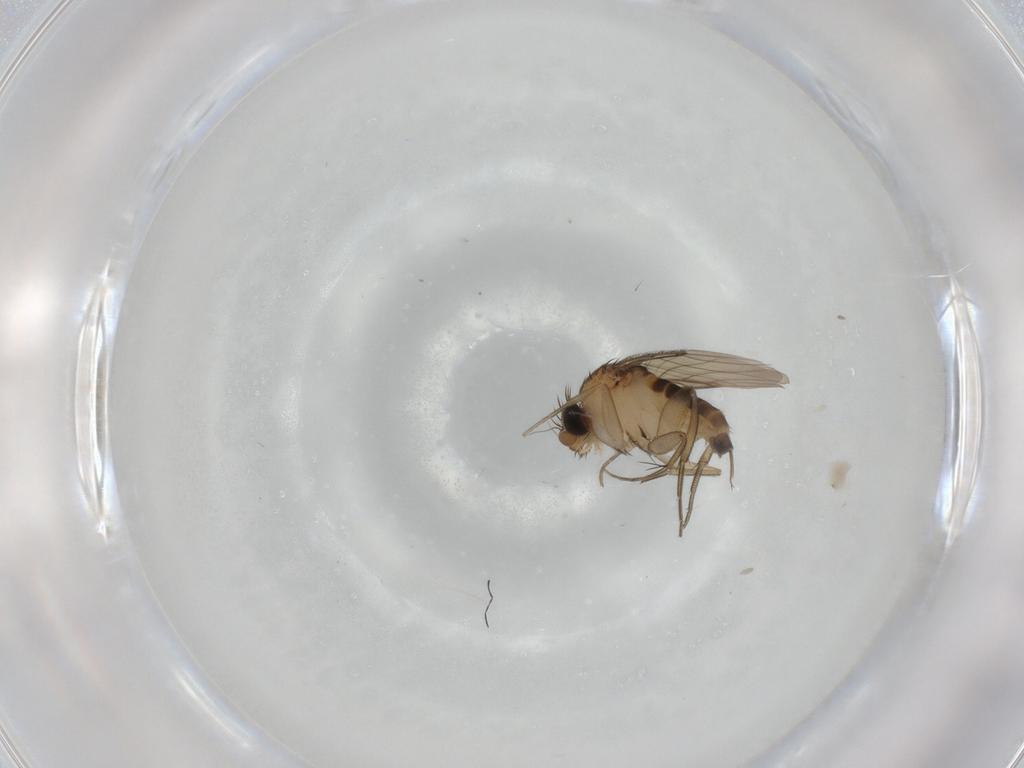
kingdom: Animalia
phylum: Arthropoda
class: Insecta
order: Diptera
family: Phoridae
